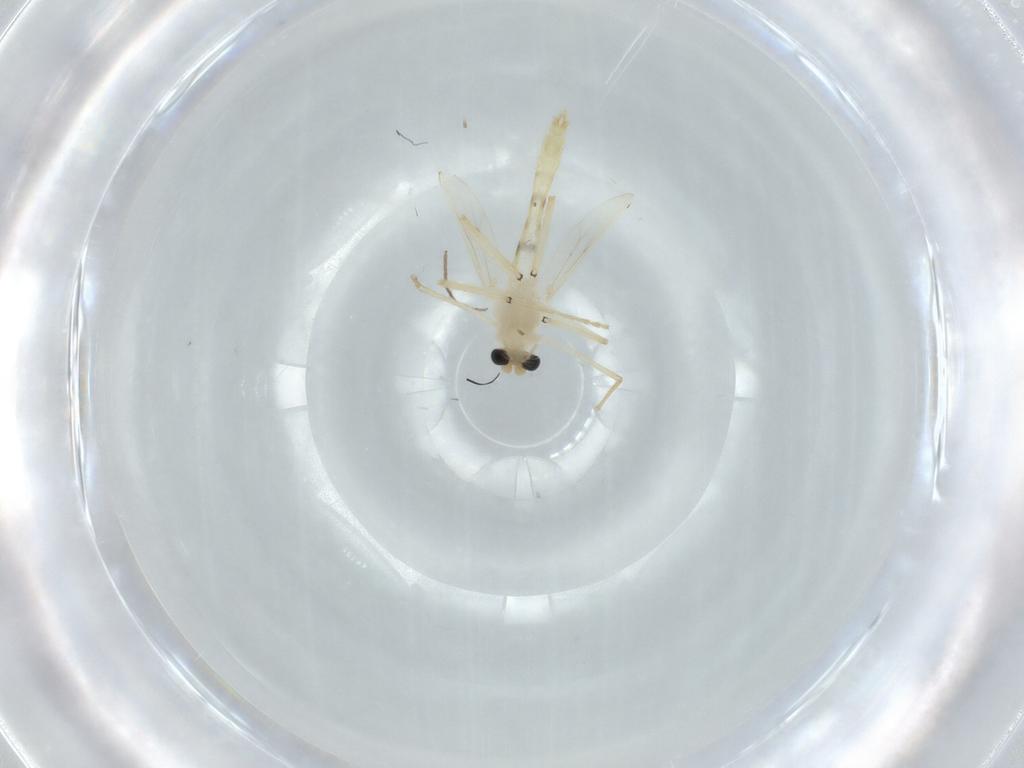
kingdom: Animalia
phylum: Arthropoda
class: Insecta
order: Diptera
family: Chironomidae
